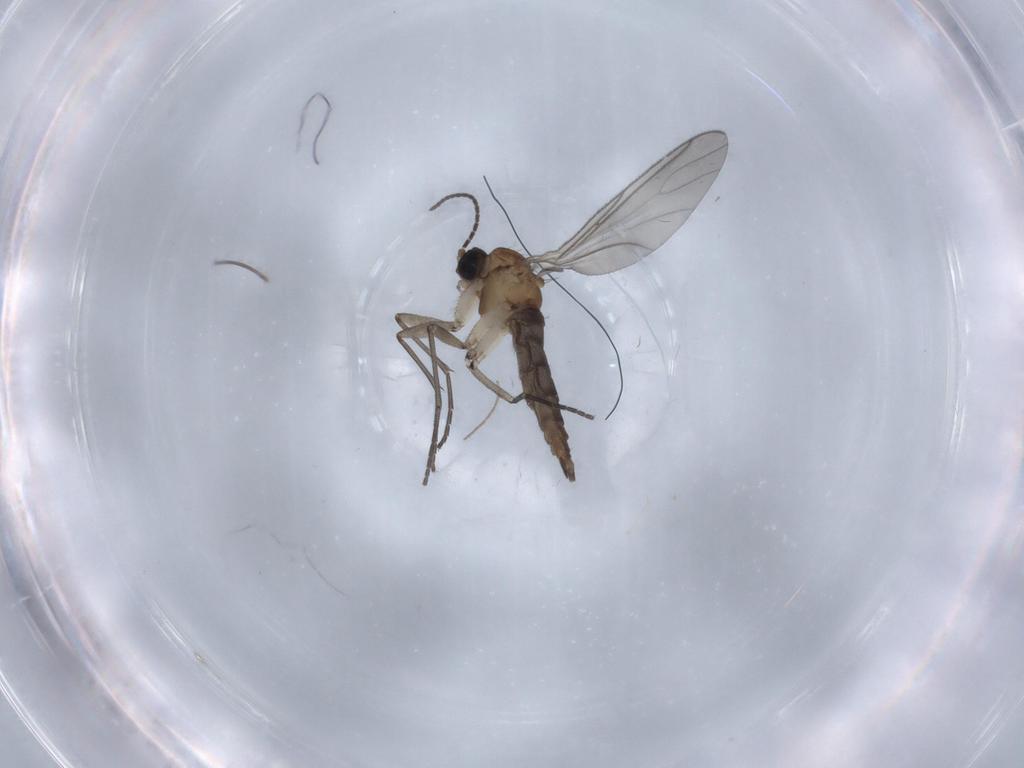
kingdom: Animalia
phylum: Arthropoda
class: Insecta
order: Diptera
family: Sciaridae
